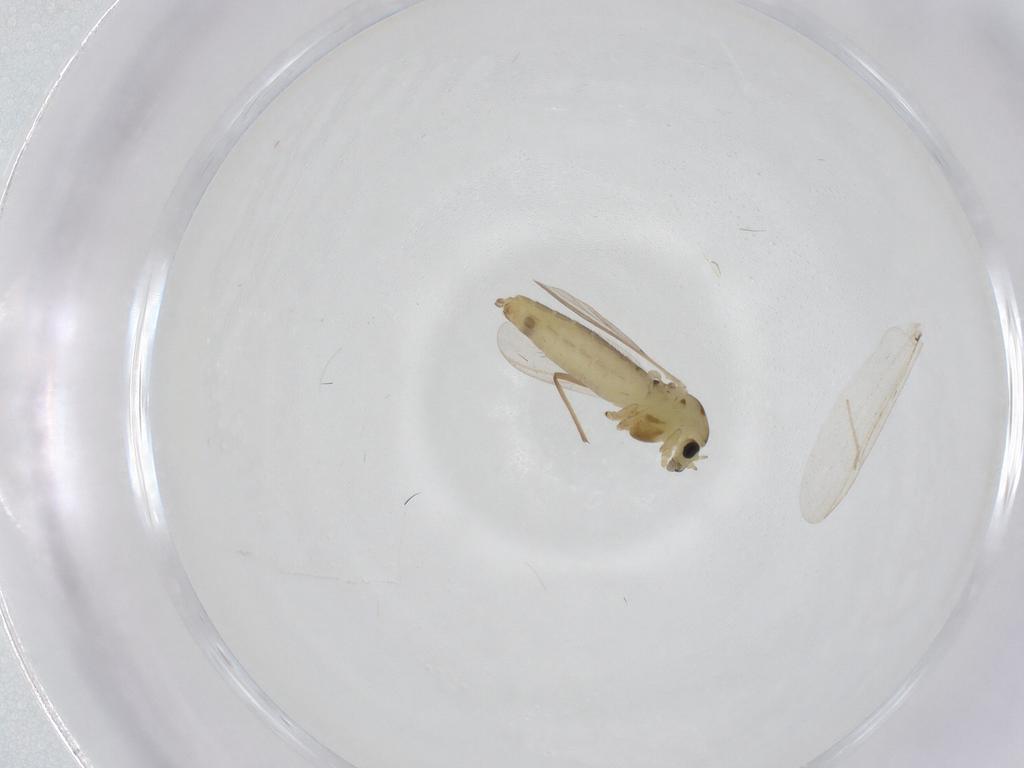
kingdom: Animalia
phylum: Arthropoda
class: Insecta
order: Diptera
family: Chironomidae
